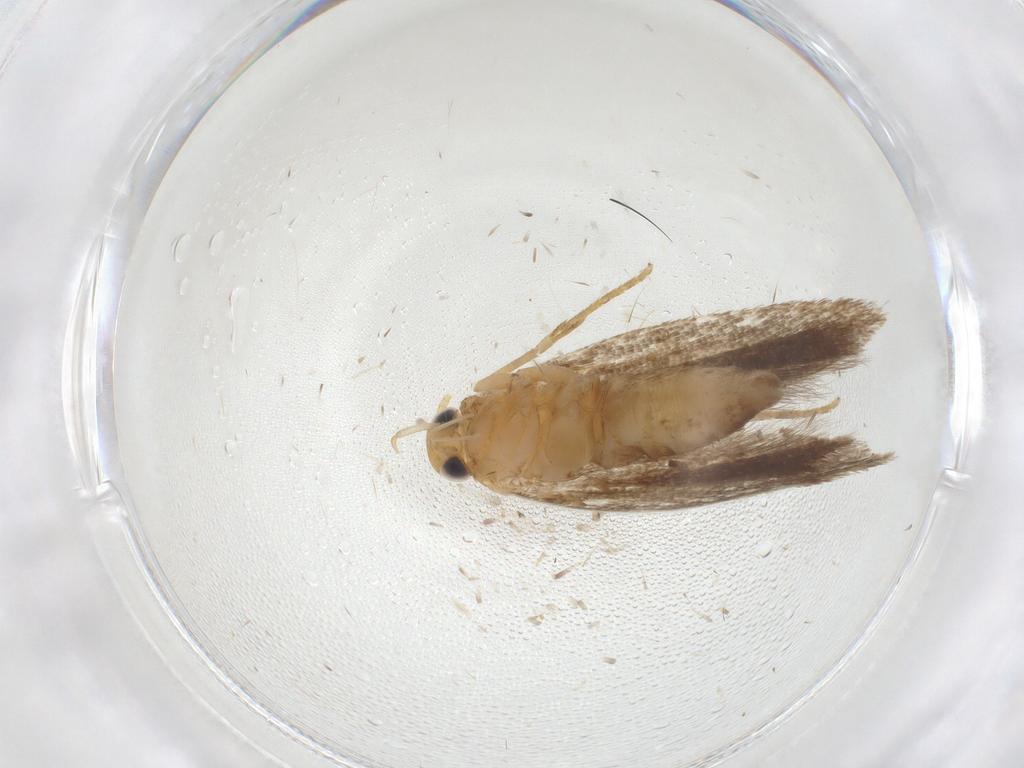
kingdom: Animalia
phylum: Arthropoda
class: Insecta
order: Lepidoptera
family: Gelechiidae
